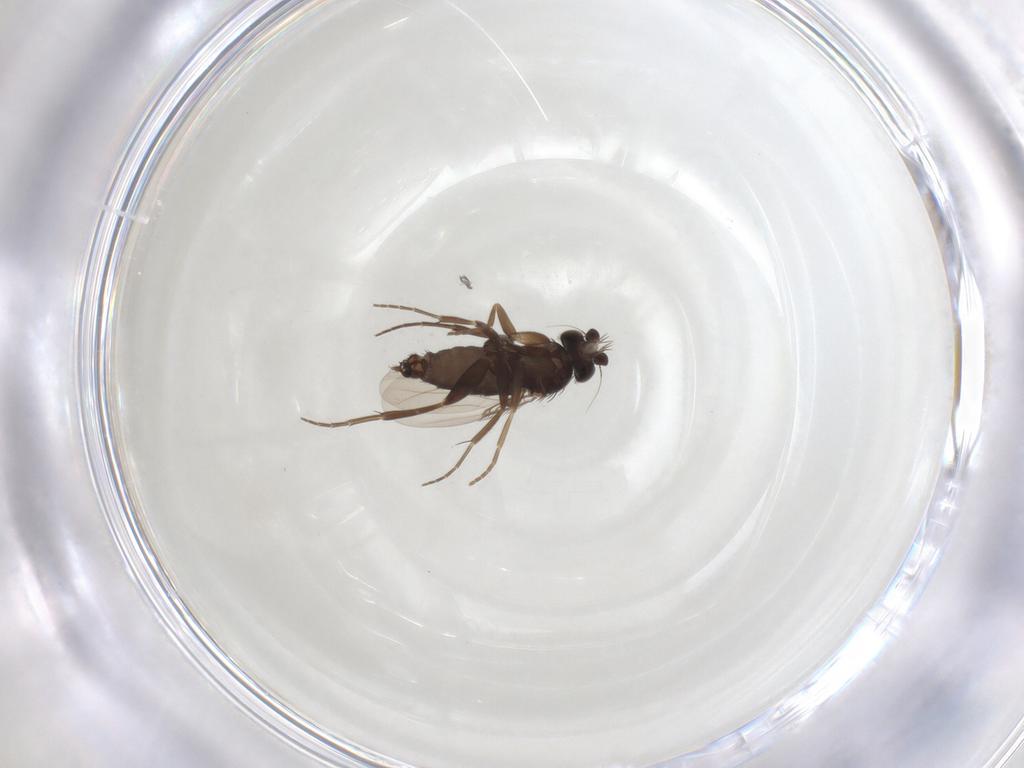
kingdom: Animalia
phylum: Arthropoda
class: Insecta
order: Diptera
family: Phoridae
